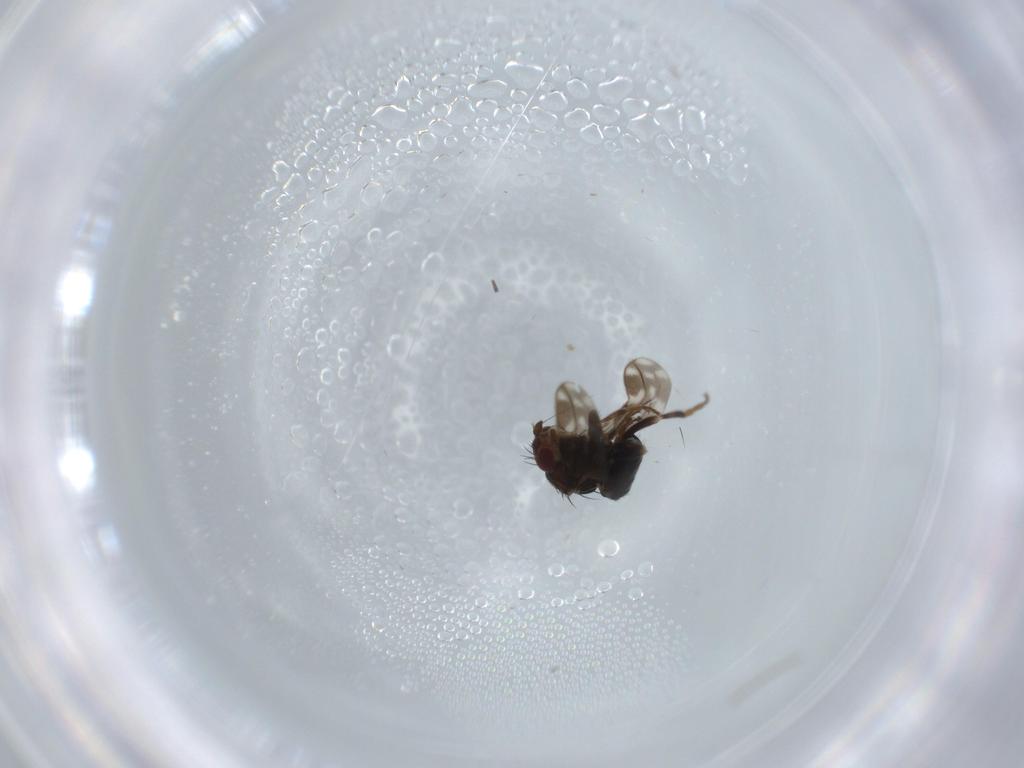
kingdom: Animalia
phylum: Arthropoda
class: Insecta
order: Diptera
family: Sphaeroceridae
